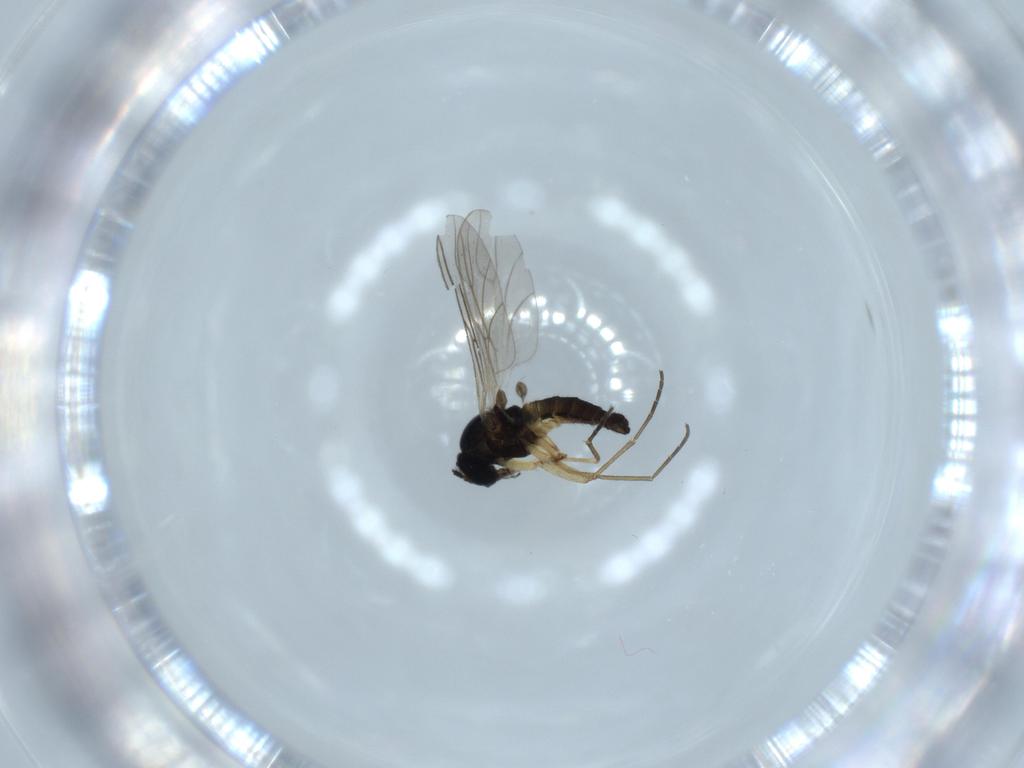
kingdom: Animalia
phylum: Arthropoda
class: Insecta
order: Diptera
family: Sciaridae
